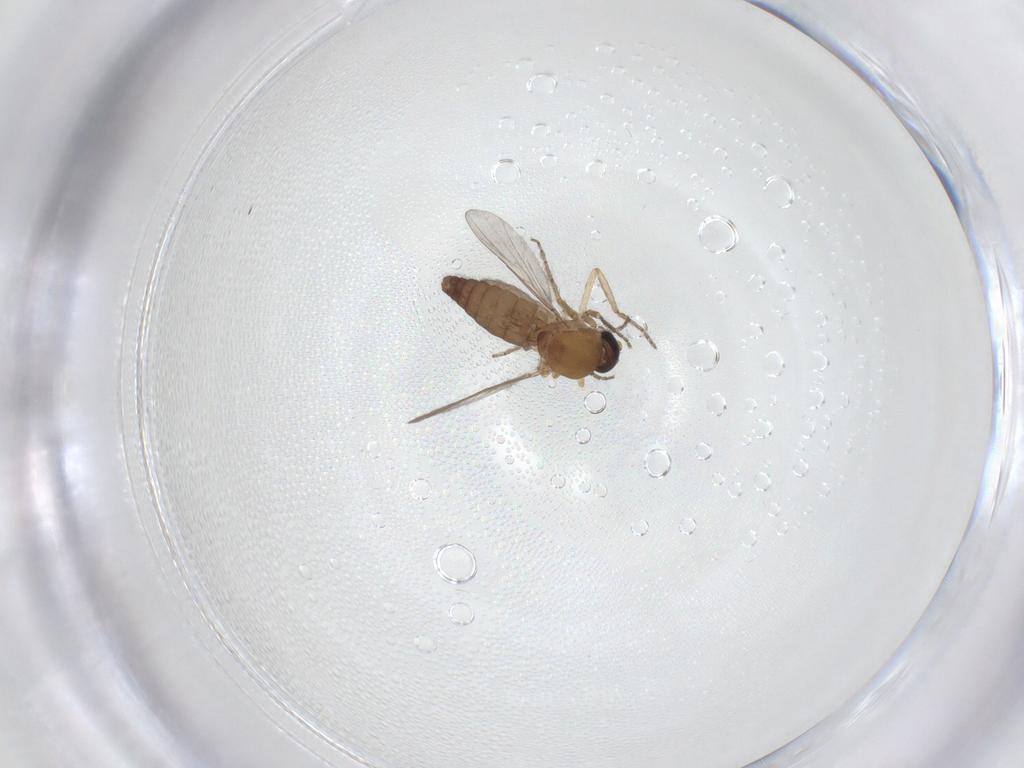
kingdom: Animalia
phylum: Arthropoda
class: Insecta
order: Diptera
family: Ceratopogonidae
